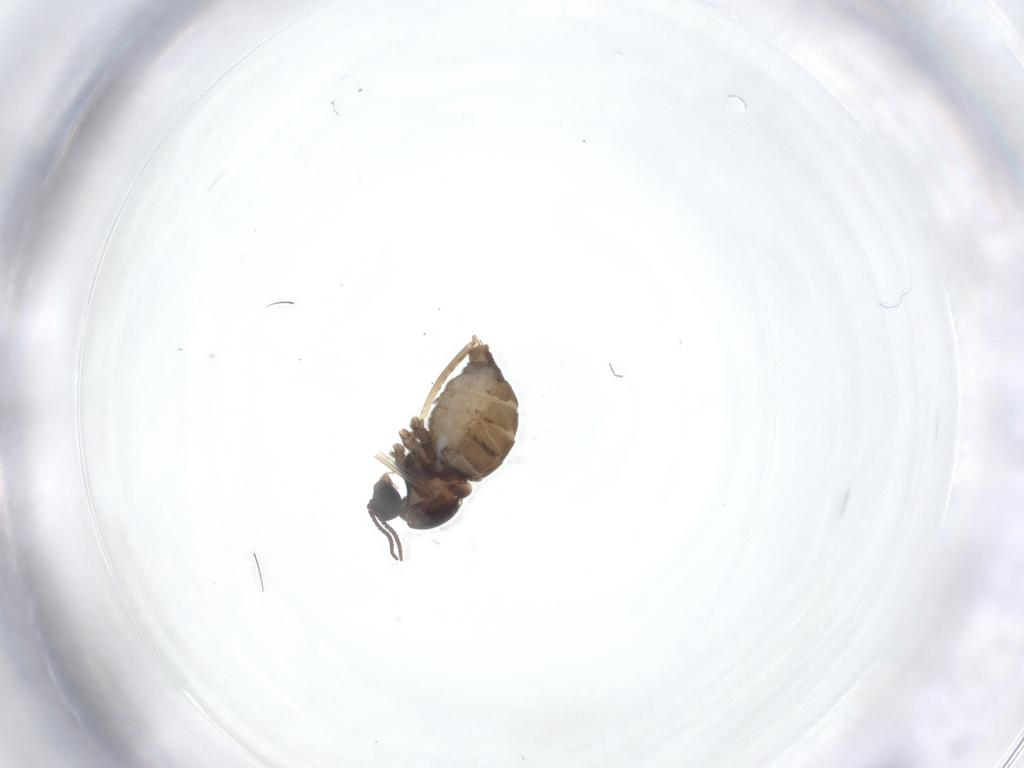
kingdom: Animalia
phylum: Arthropoda
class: Insecta
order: Diptera
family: Cecidomyiidae
